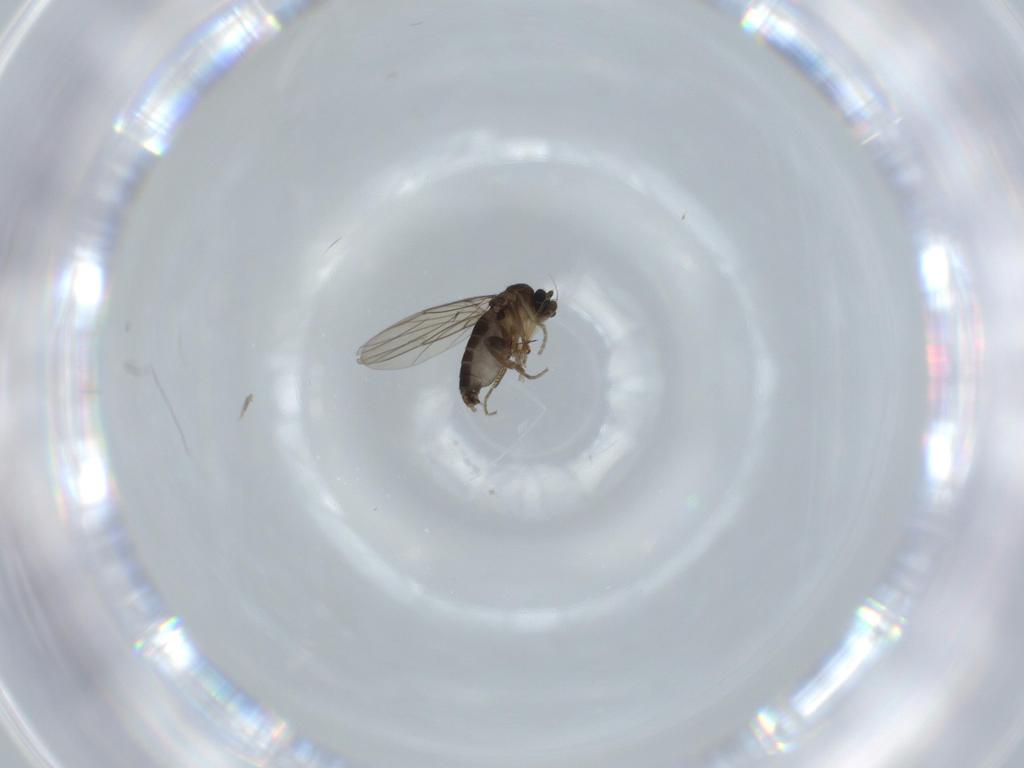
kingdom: Animalia
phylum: Arthropoda
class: Insecta
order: Diptera
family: Phoridae
